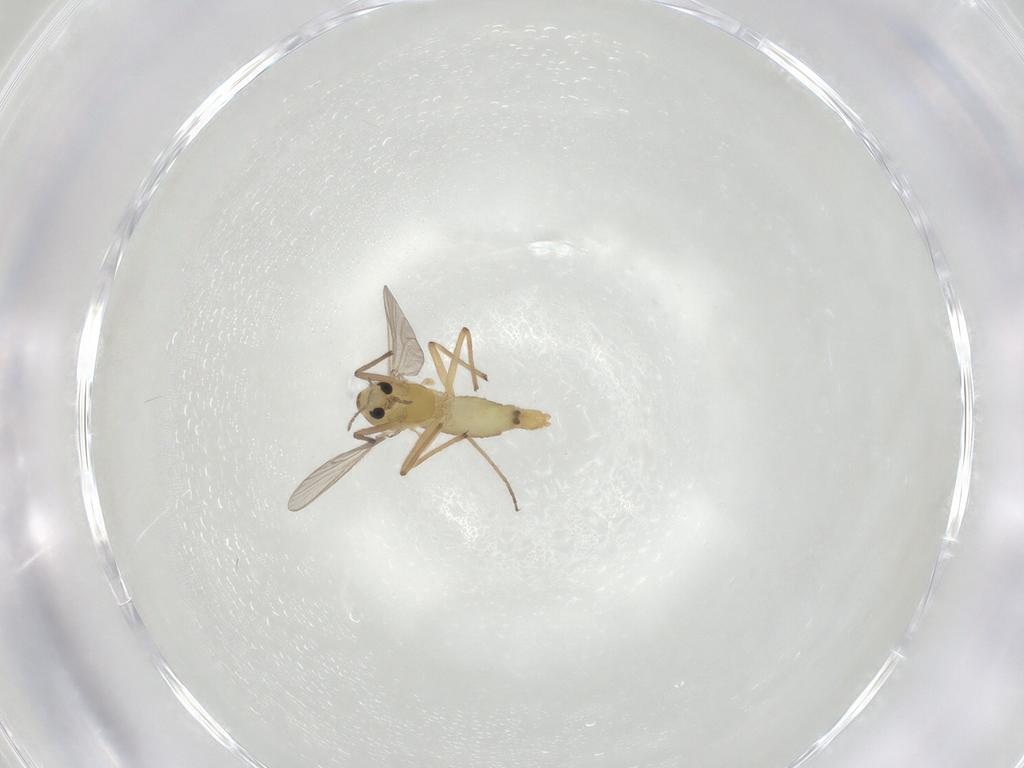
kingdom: Animalia
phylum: Arthropoda
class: Insecta
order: Diptera
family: Chironomidae
